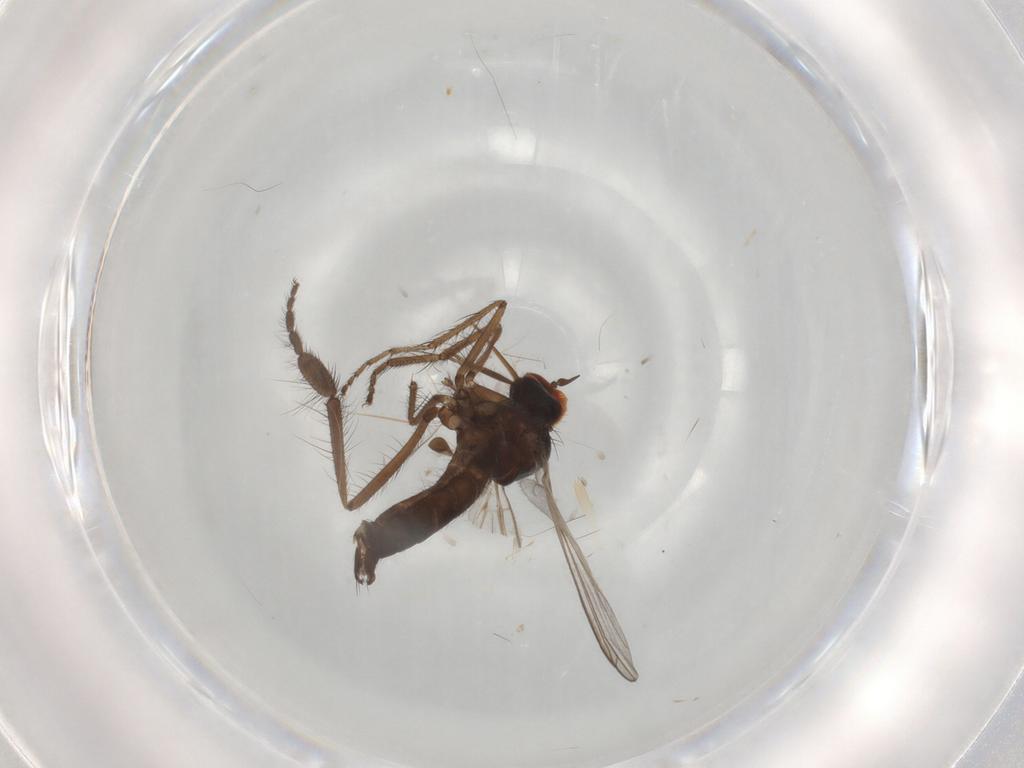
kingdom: Animalia
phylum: Arthropoda
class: Insecta
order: Diptera
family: Empididae
